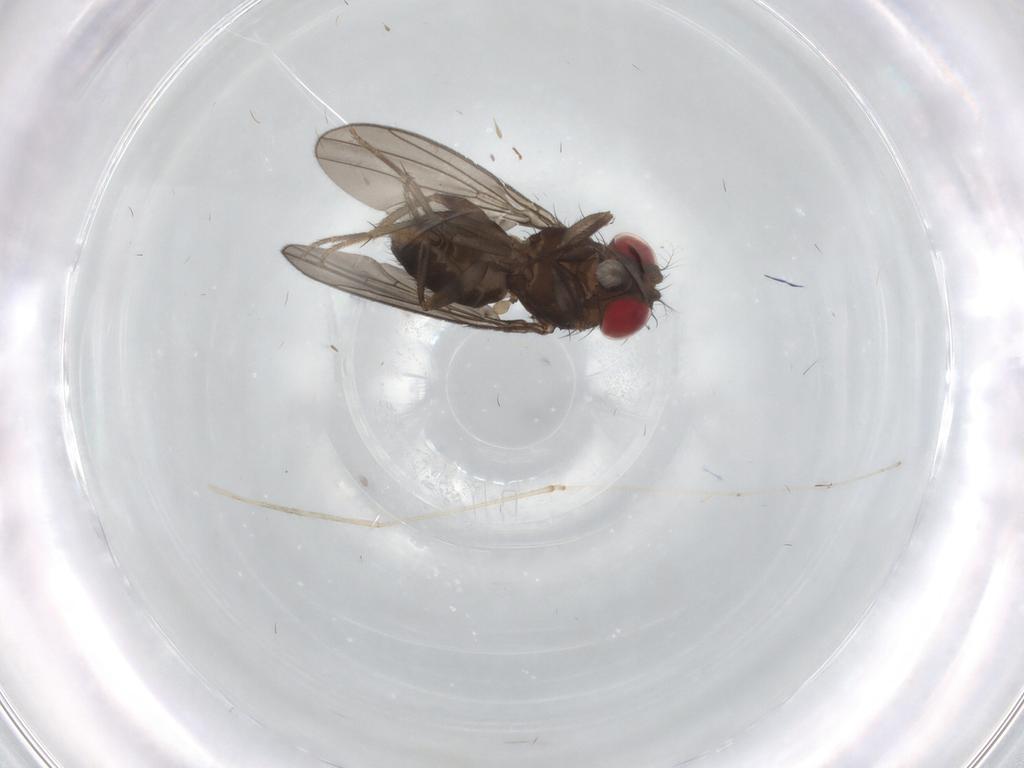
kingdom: Animalia
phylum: Arthropoda
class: Insecta
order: Diptera
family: Drosophilidae
